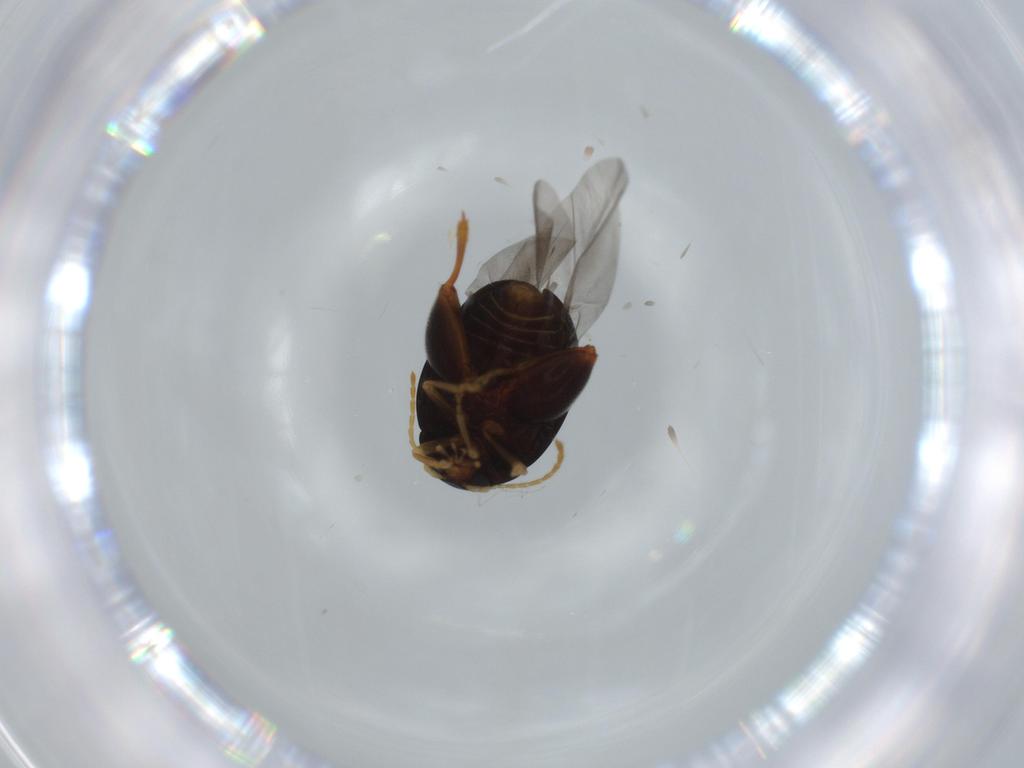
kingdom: Animalia
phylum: Arthropoda
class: Insecta
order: Coleoptera
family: Chrysomelidae
